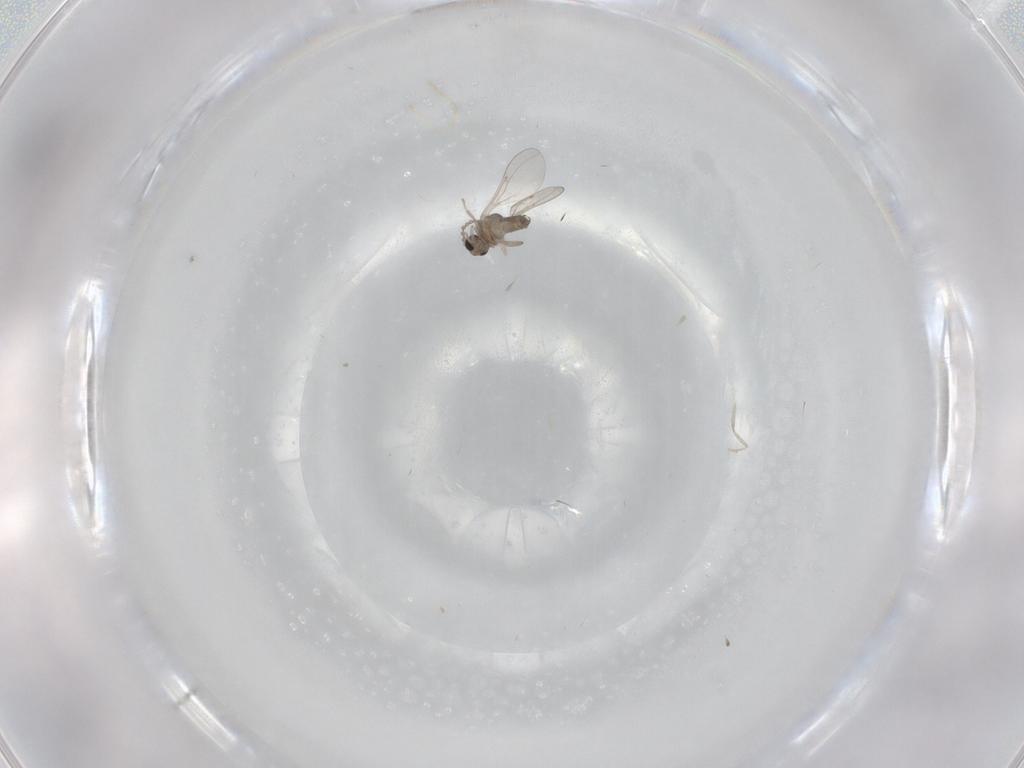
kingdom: Animalia
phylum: Arthropoda
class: Insecta
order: Diptera
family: Cecidomyiidae
